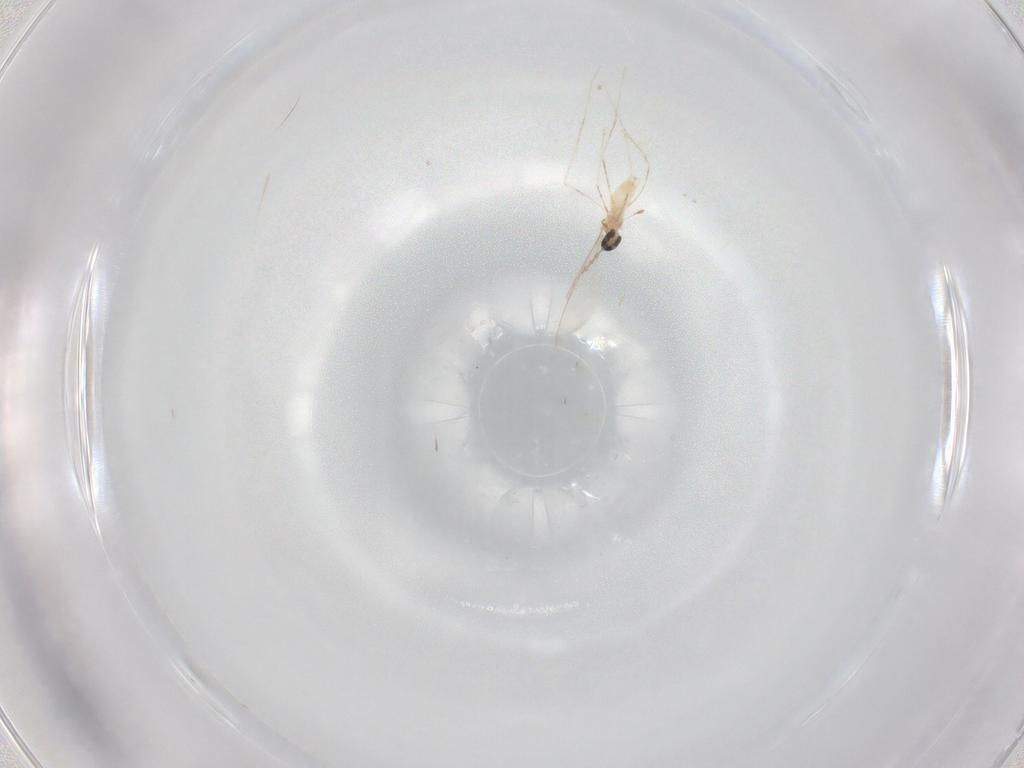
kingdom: Animalia
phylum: Arthropoda
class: Insecta
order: Diptera
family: Cecidomyiidae
